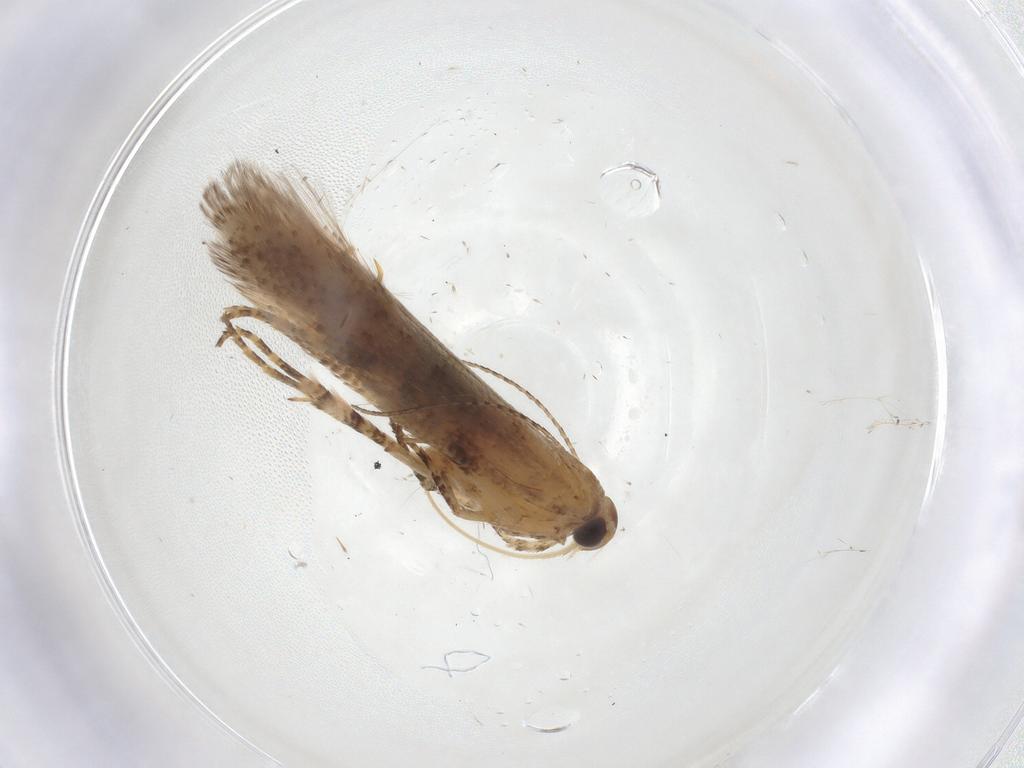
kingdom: Animalia
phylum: Arthropoda
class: Insecta
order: Lepidoptera
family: Gelechiidae
